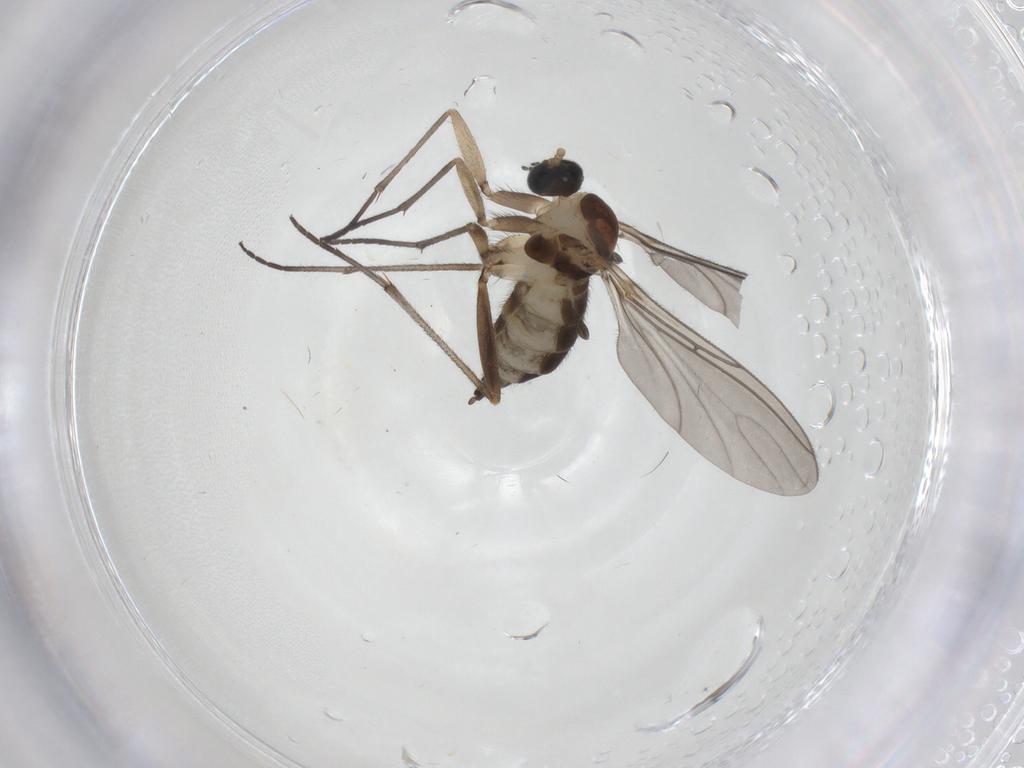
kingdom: Animalia
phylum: Arthropoda
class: Insecta
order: Diptera
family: Sciaridae
